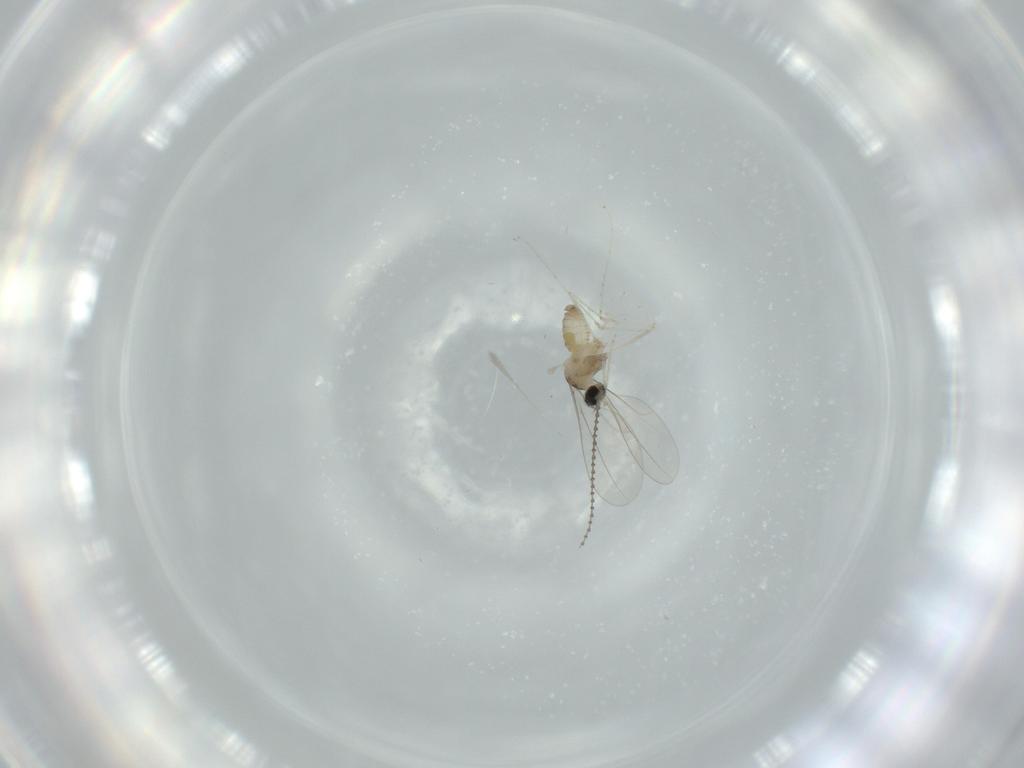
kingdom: Animalia
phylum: Arthropoda
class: Insecta
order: Diptera
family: Cecidomyiidae
